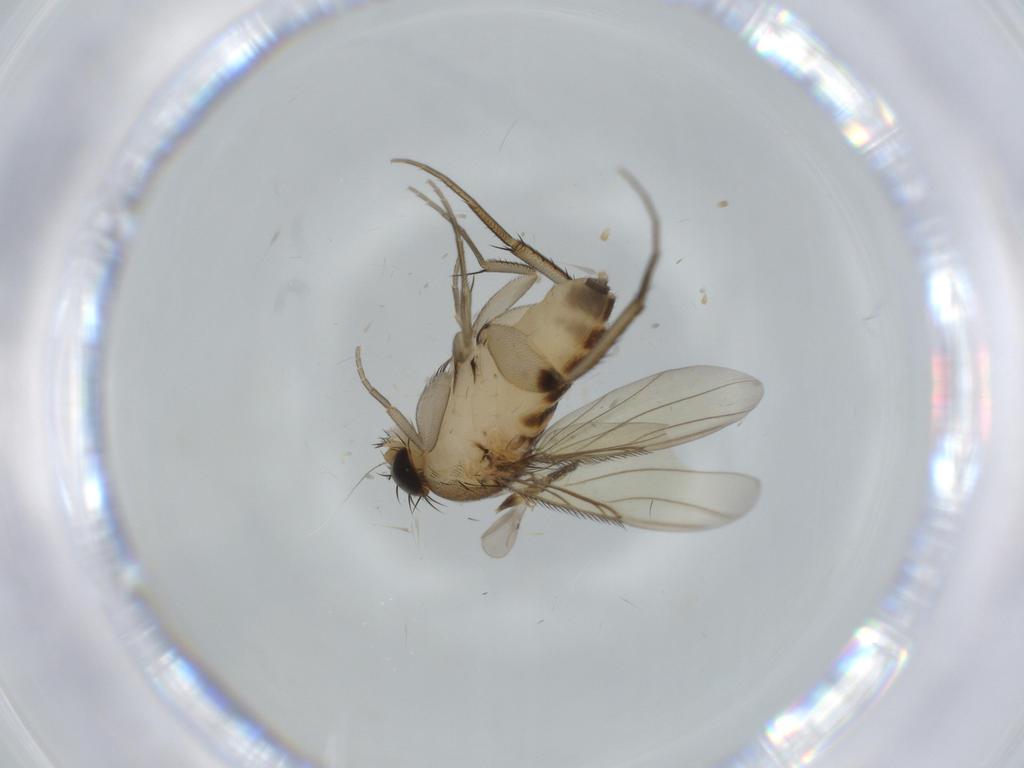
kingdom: Animalia
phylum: Arthropoda
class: Insecta
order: Diptera
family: Phoridae
